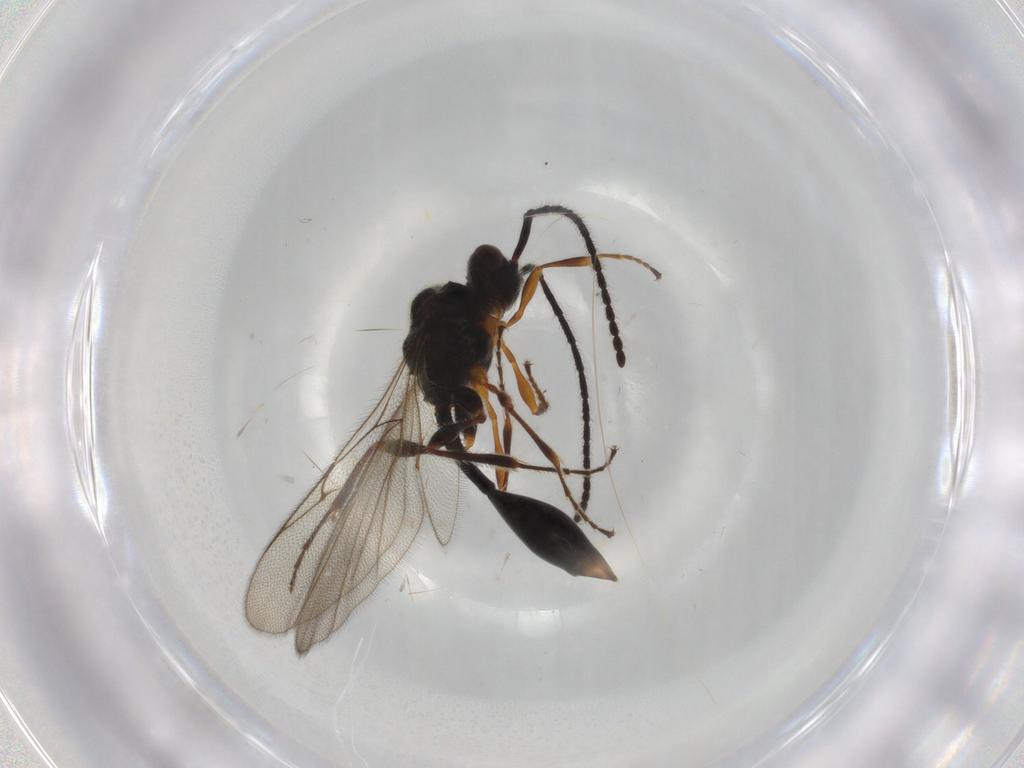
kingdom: Animalia
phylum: Arthropoda
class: Insecta
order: Hymenoptera
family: Diapriidae
